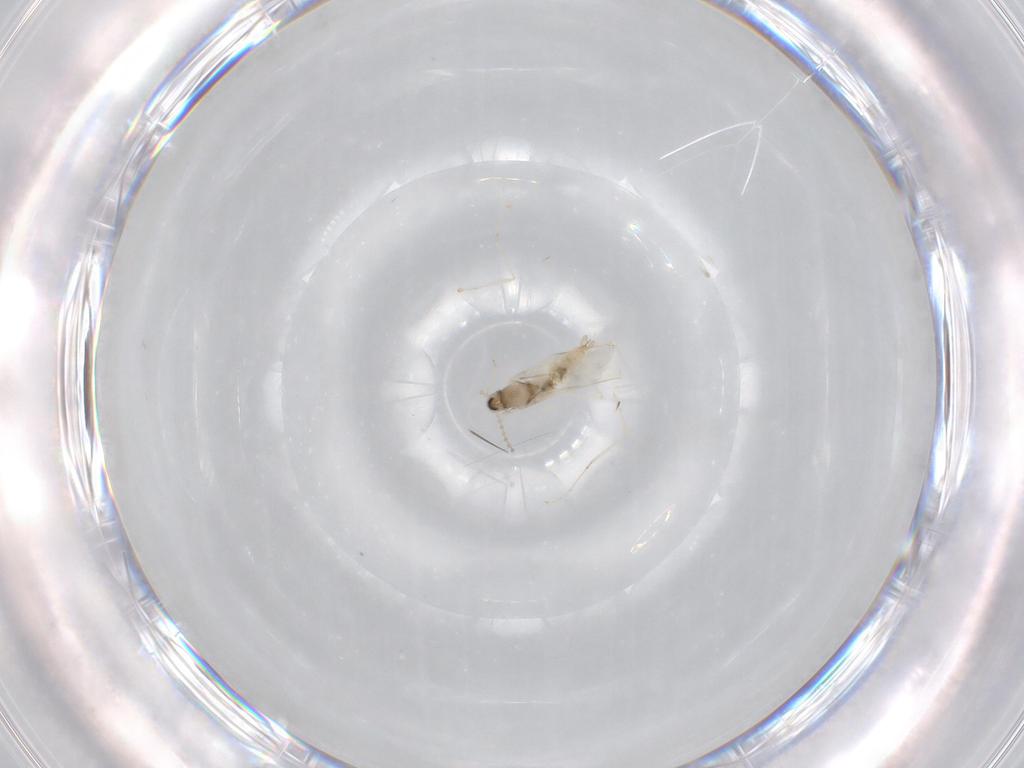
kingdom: Animalia
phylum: Arthropoda
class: Insecta
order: Diptera
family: Cecidomyiidae
